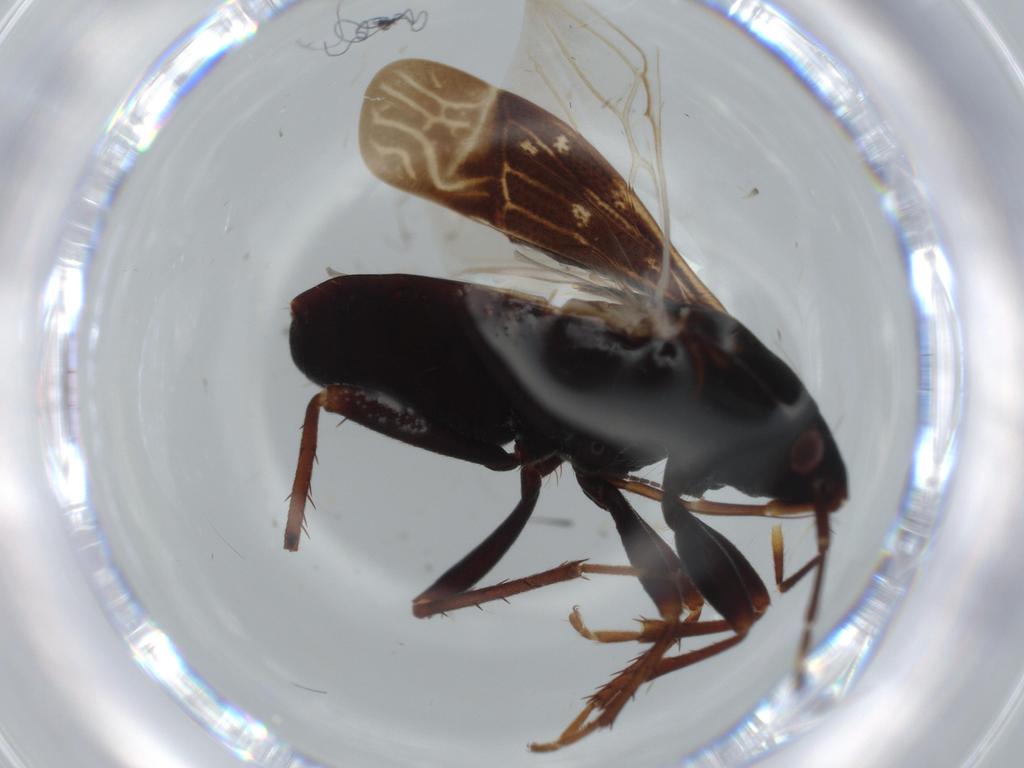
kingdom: Animalia
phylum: Arthropoda
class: Insecta
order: Hemiptera
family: Rhyparochromidae
